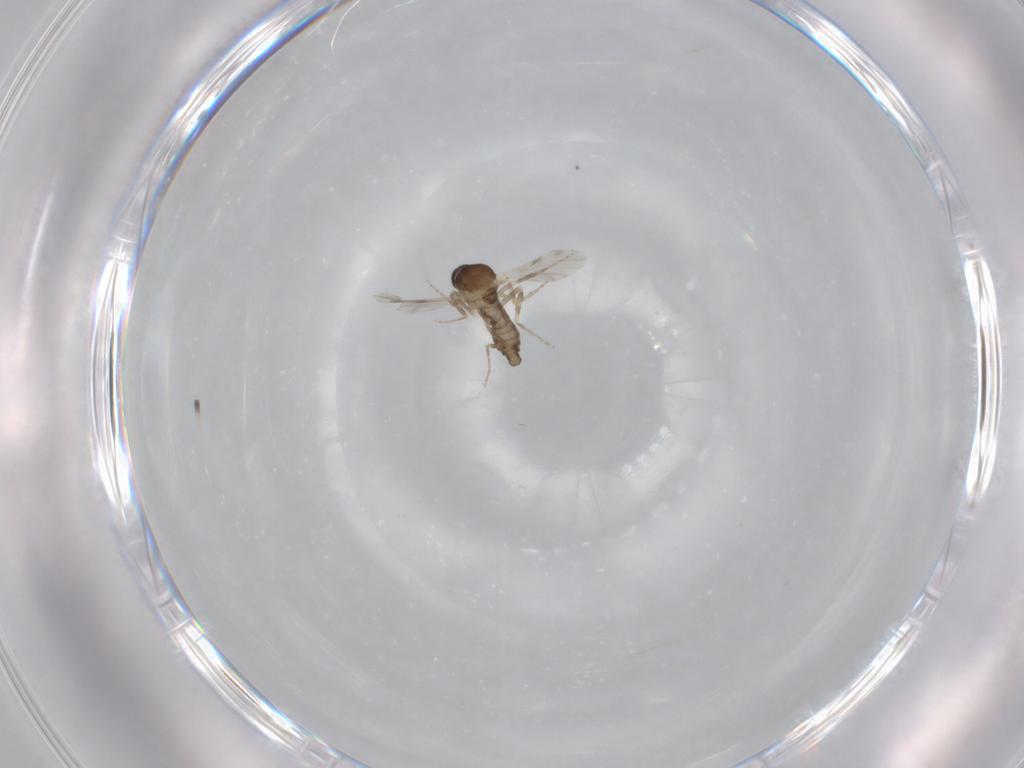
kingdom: Animalia
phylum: Arthropoda
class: Insecta
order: Diptera
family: Ceratopogonidae
